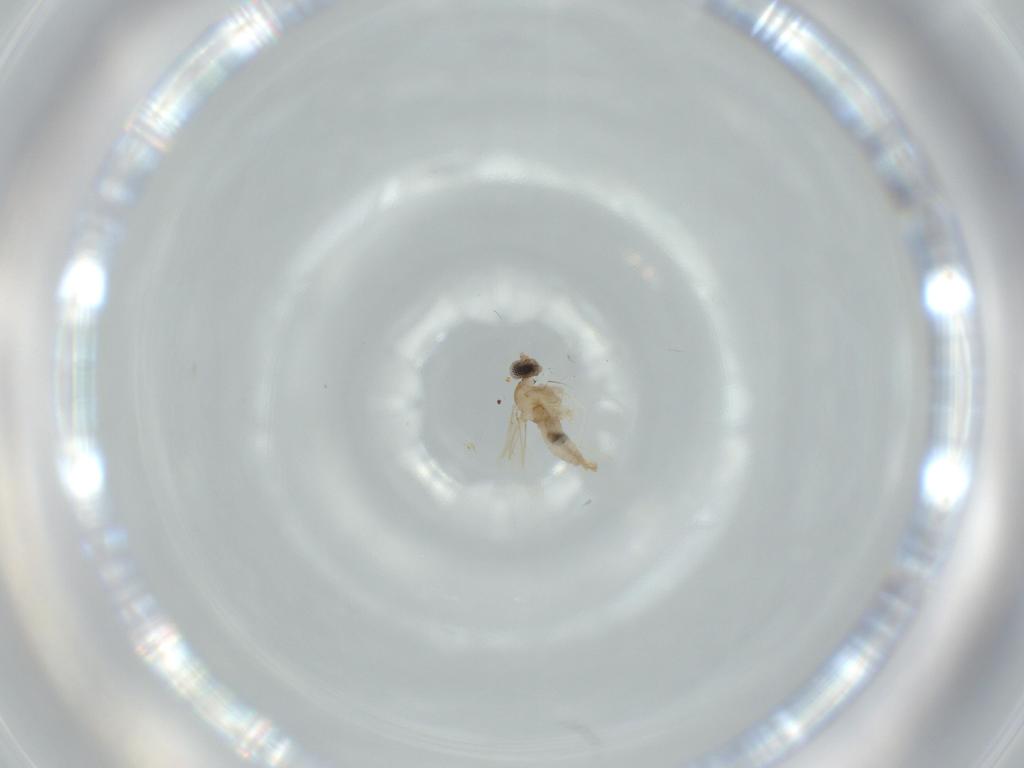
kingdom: Animalia
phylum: Arthropoda
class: Insecta
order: Diptera
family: Cecidomyiidae
